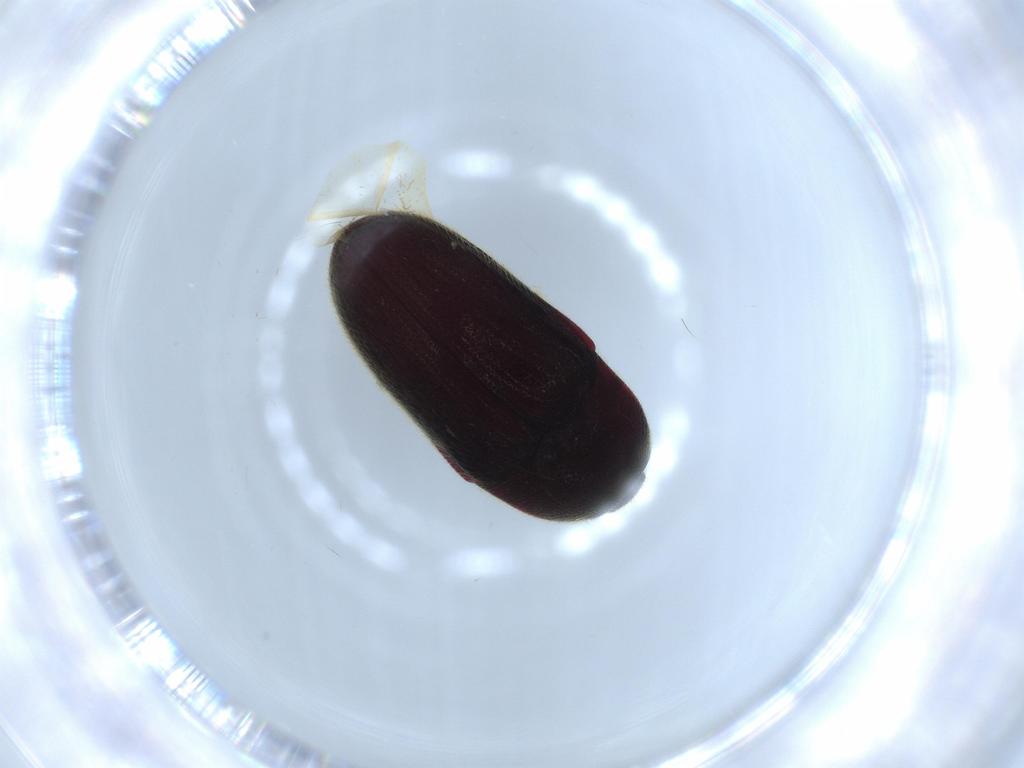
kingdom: Animalia
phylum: Arthropoda
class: Insecta
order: Coleoptera
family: Throscidae
